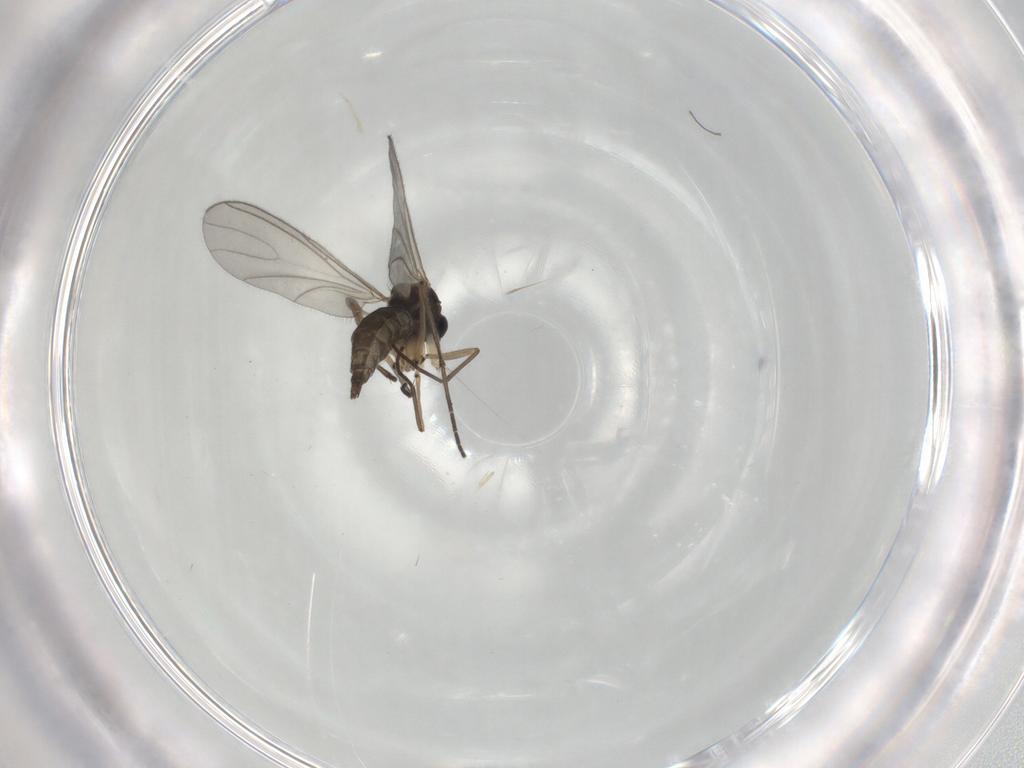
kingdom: Animalia
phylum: Arthropoda
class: Insecta
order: Diptera
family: Sciaridae
